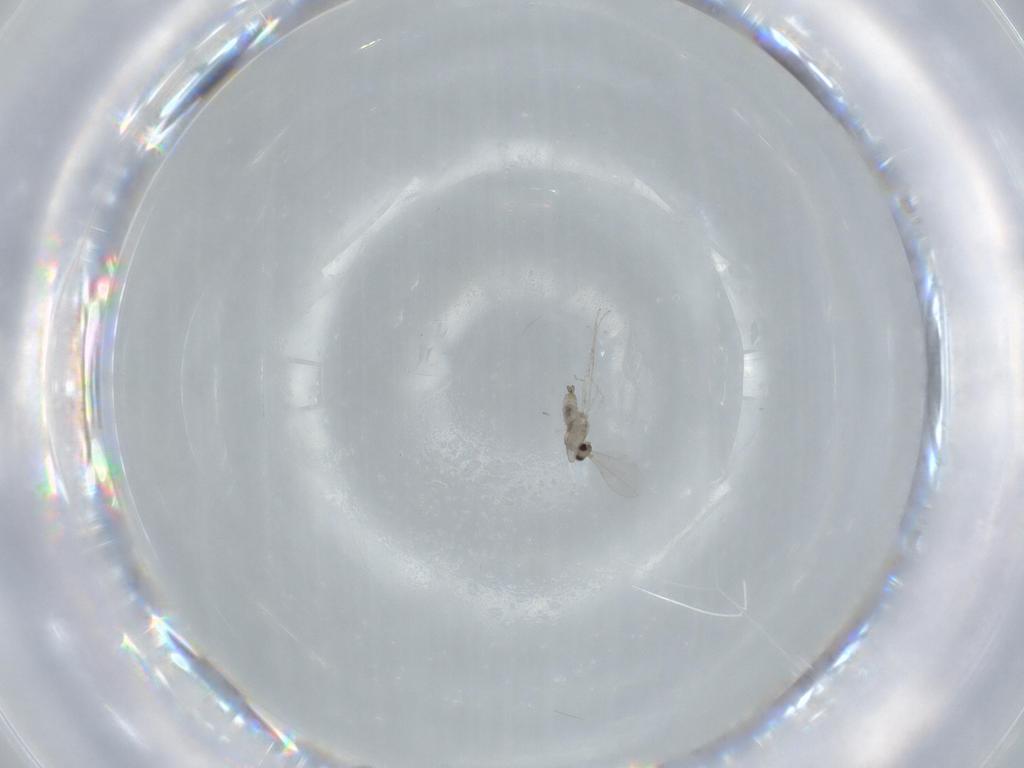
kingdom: Animalia
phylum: Arthropoda
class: Insecta
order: Diptera
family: Cecidomyiidae
